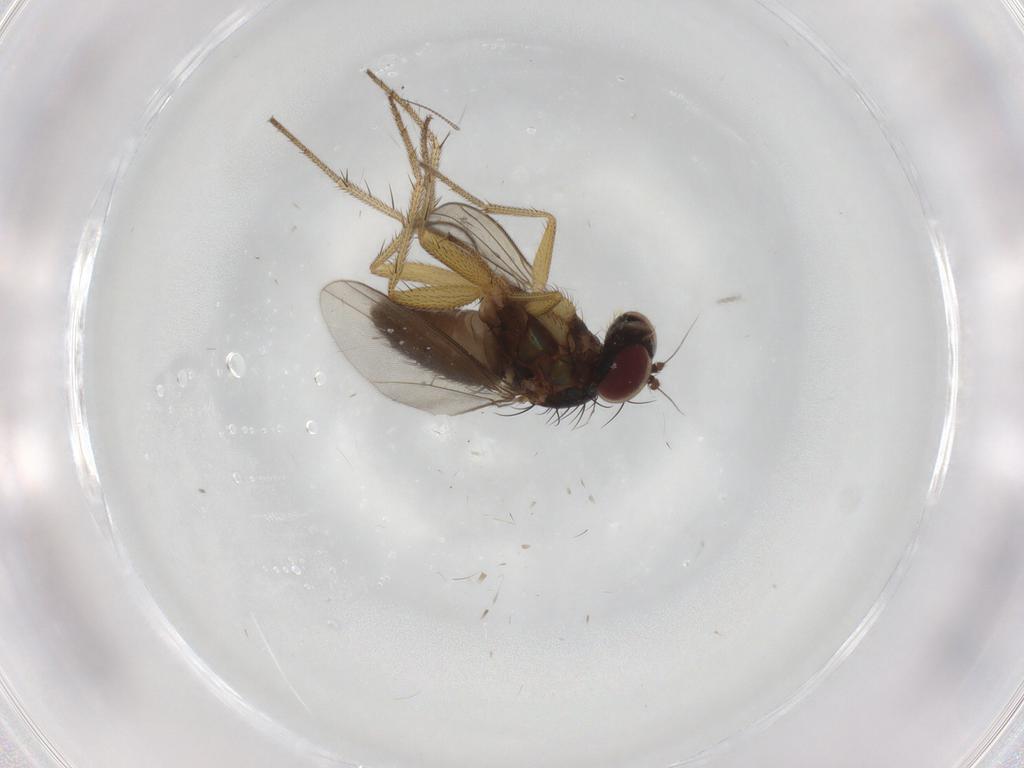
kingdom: Animalia
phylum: Arthropoda
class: Insecta
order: Diptera
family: Chironomidae
